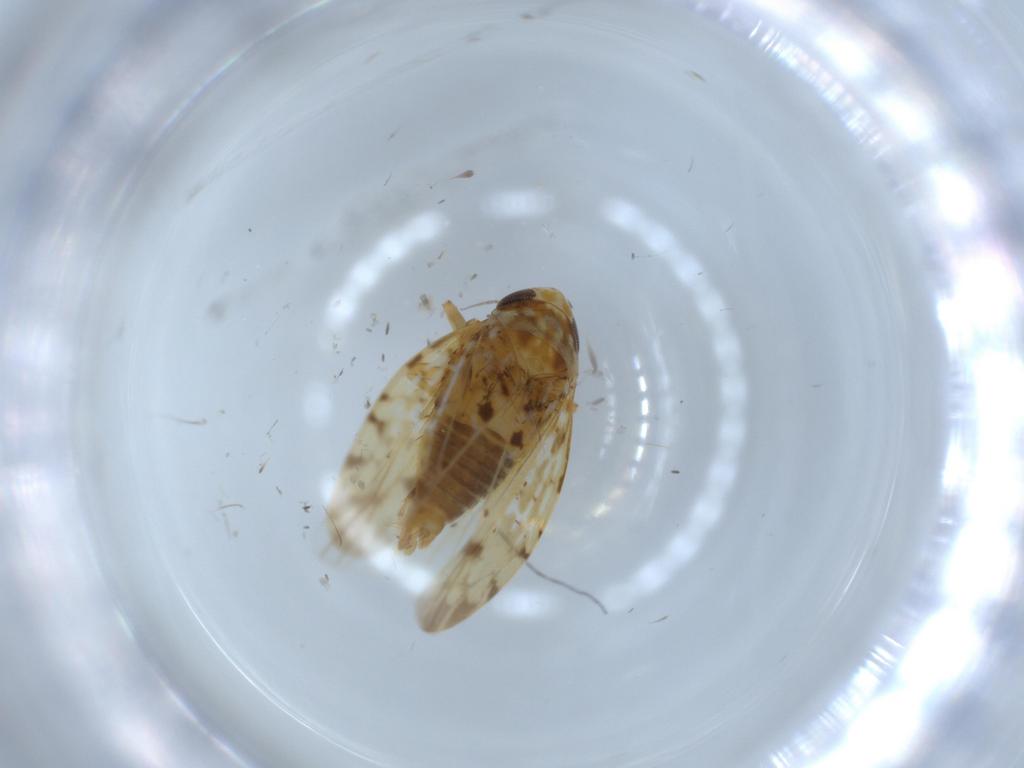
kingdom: Animalia
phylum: Arthropoda
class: Insecta
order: Hemiptera
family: Cicadellidae
